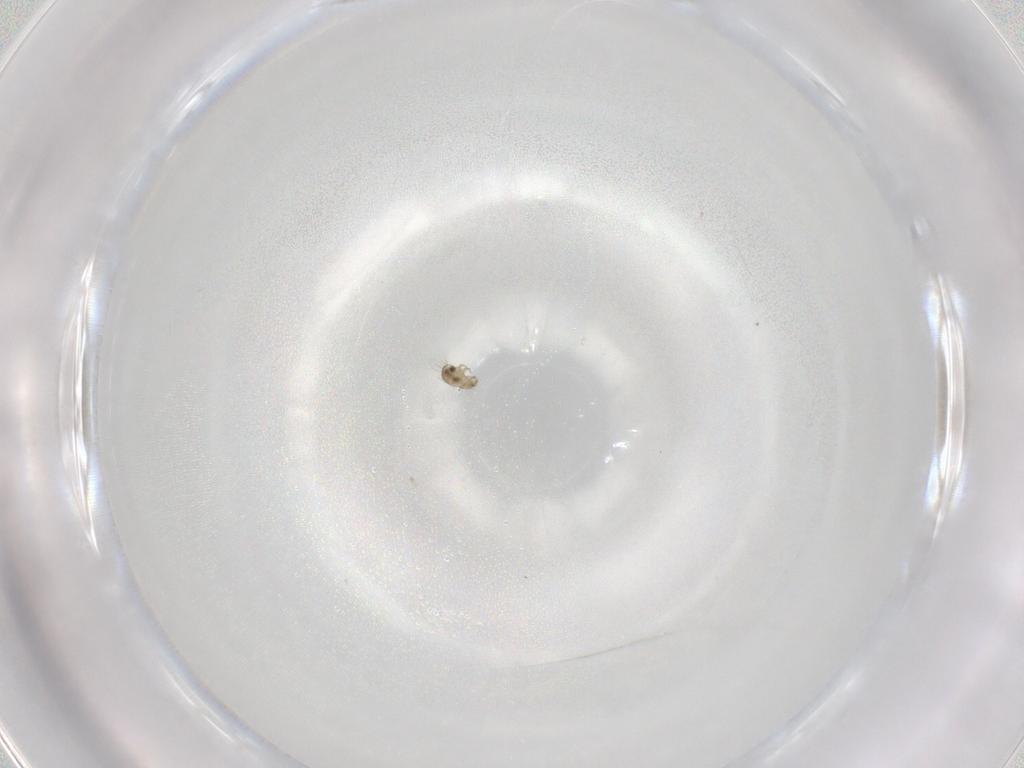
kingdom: Animalia
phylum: Arthropoda
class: Arachnida
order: Sarcoptiformes
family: Humerobatidae
